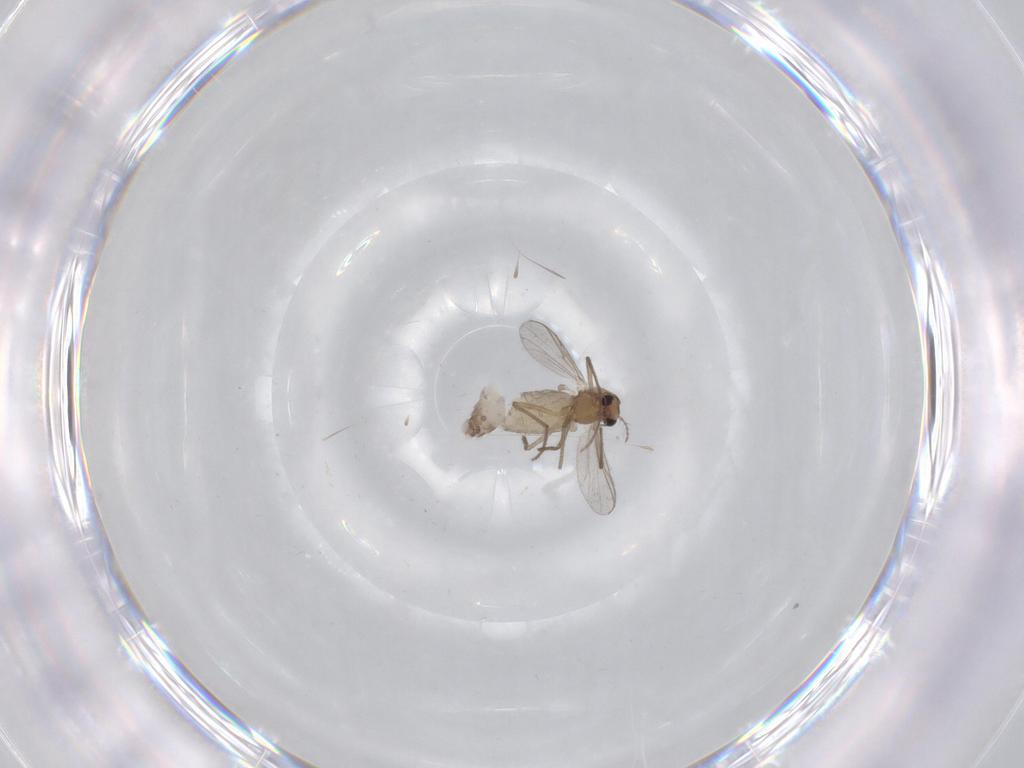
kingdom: Animalia
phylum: Arthropoda
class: Insecta
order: Diptera
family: Chironomidae
